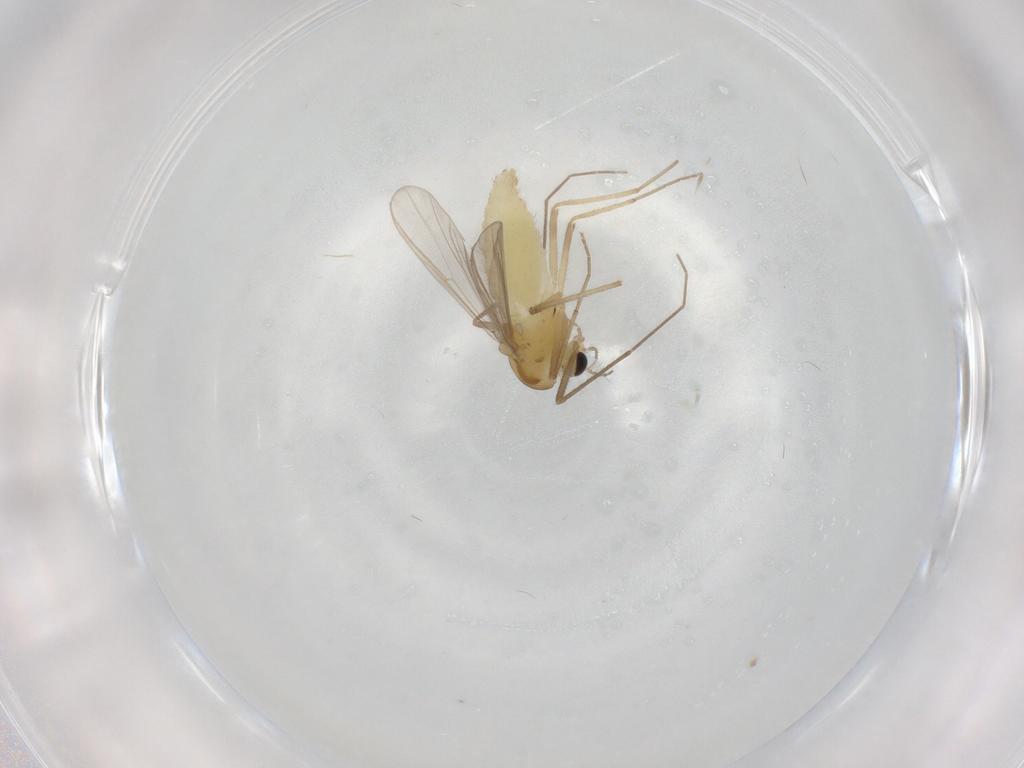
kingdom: Animalia
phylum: Arthropoda
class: Insecta
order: Diptera
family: Chironomidae
